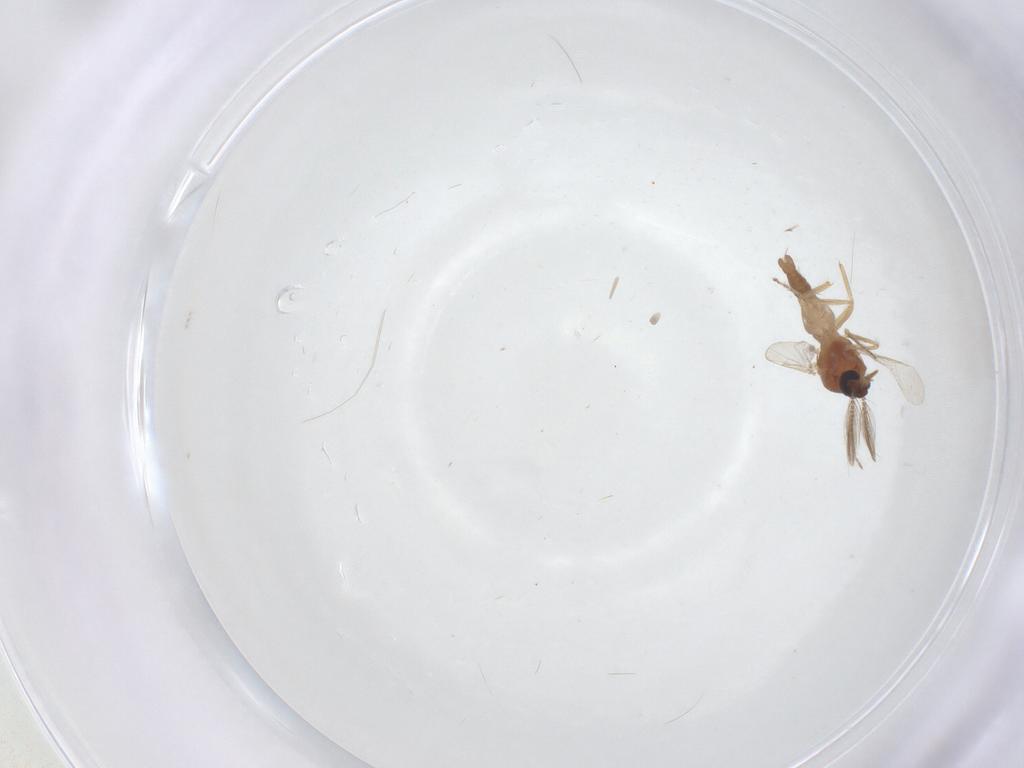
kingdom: Animalia
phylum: Arthropoda
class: Insecta
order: Diptera
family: Ceratopogonidae
